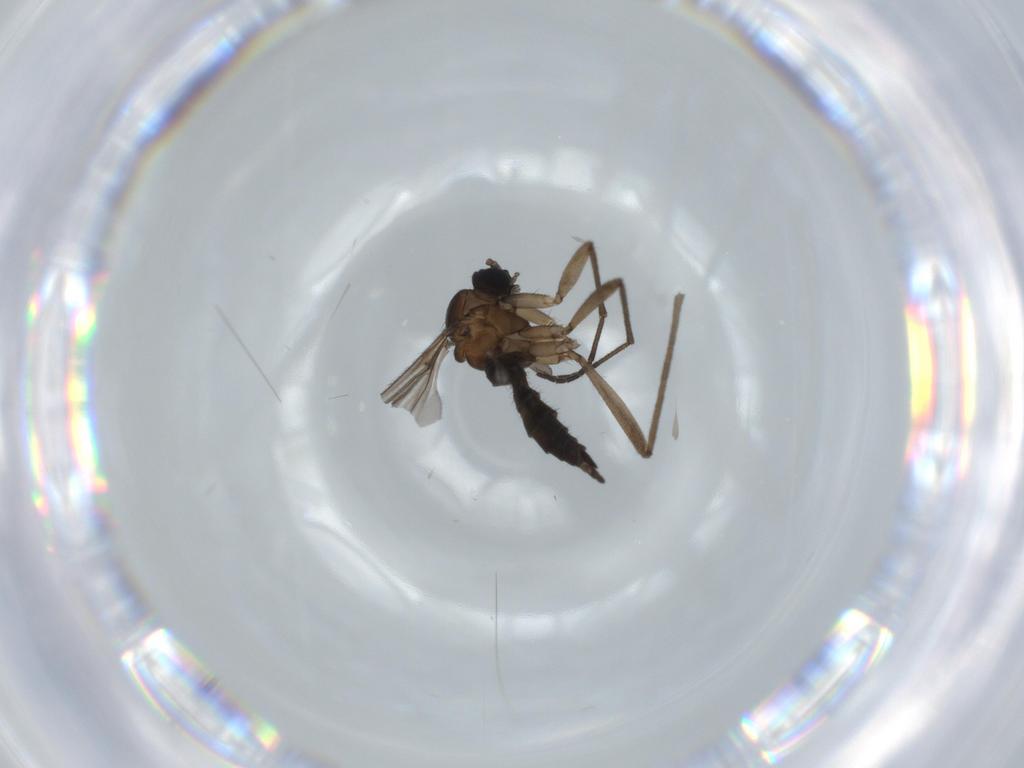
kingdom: Animalia
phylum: Arthropoda
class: Insecta
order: Diptera
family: Sciaridae
